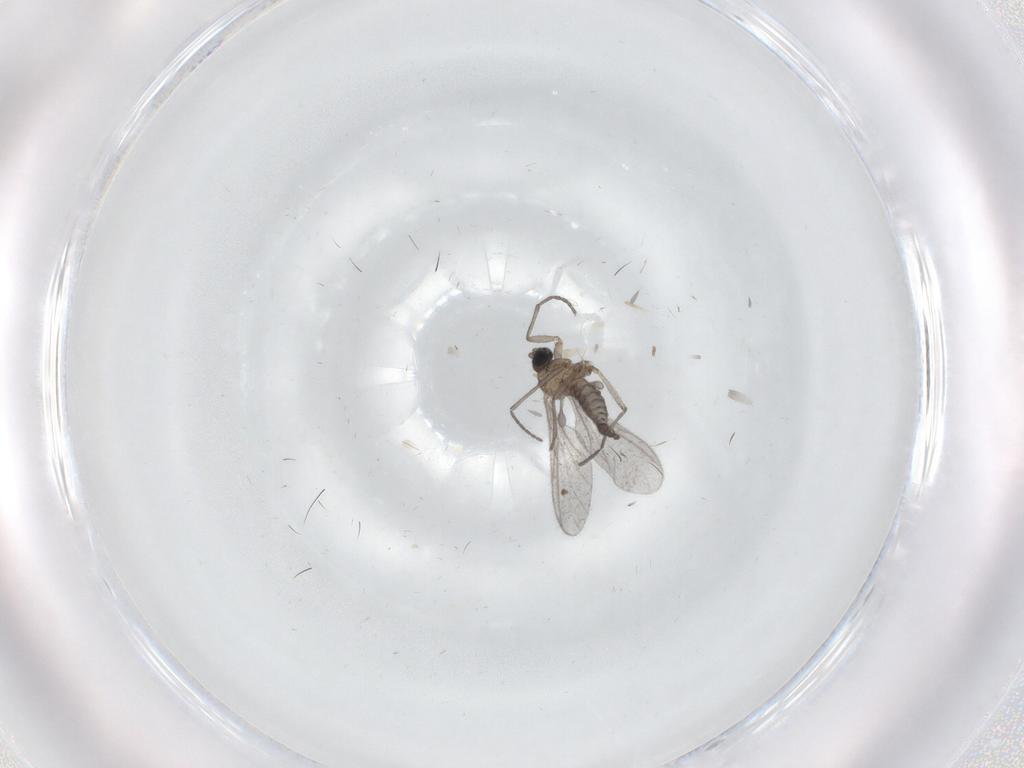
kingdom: Animalia
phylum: Arthropoda
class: Insecta
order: Diptera
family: Sciaridae
